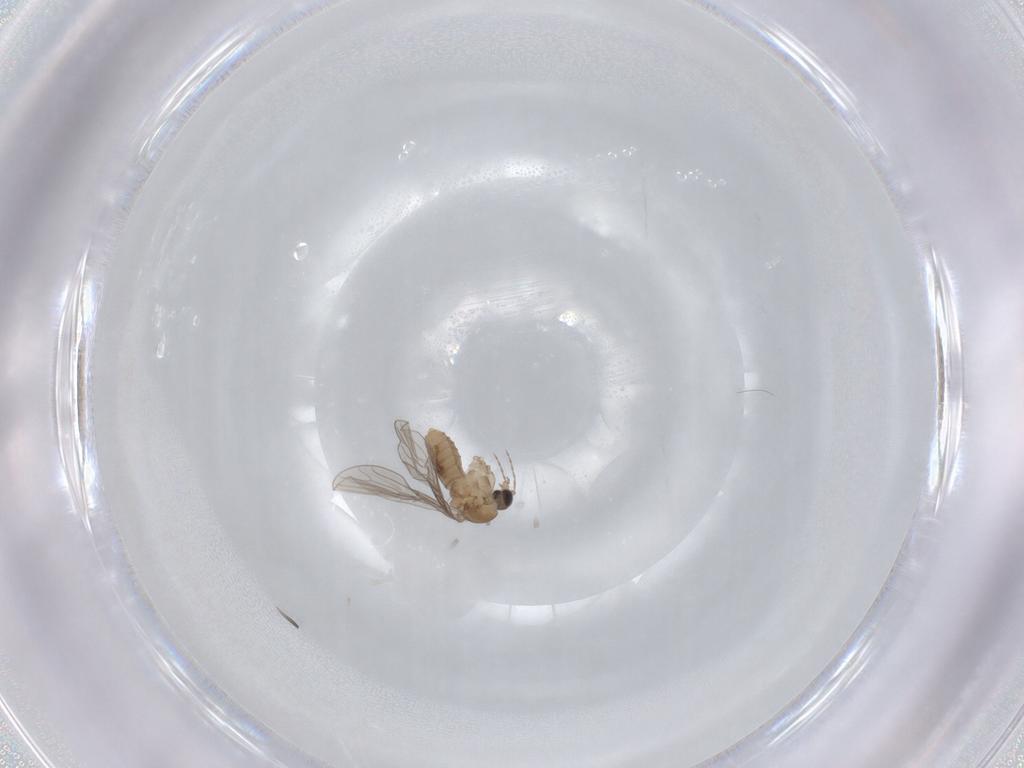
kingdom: Animalia
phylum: Arthropoda
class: Insecta
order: Diptera
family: Psychodidae
